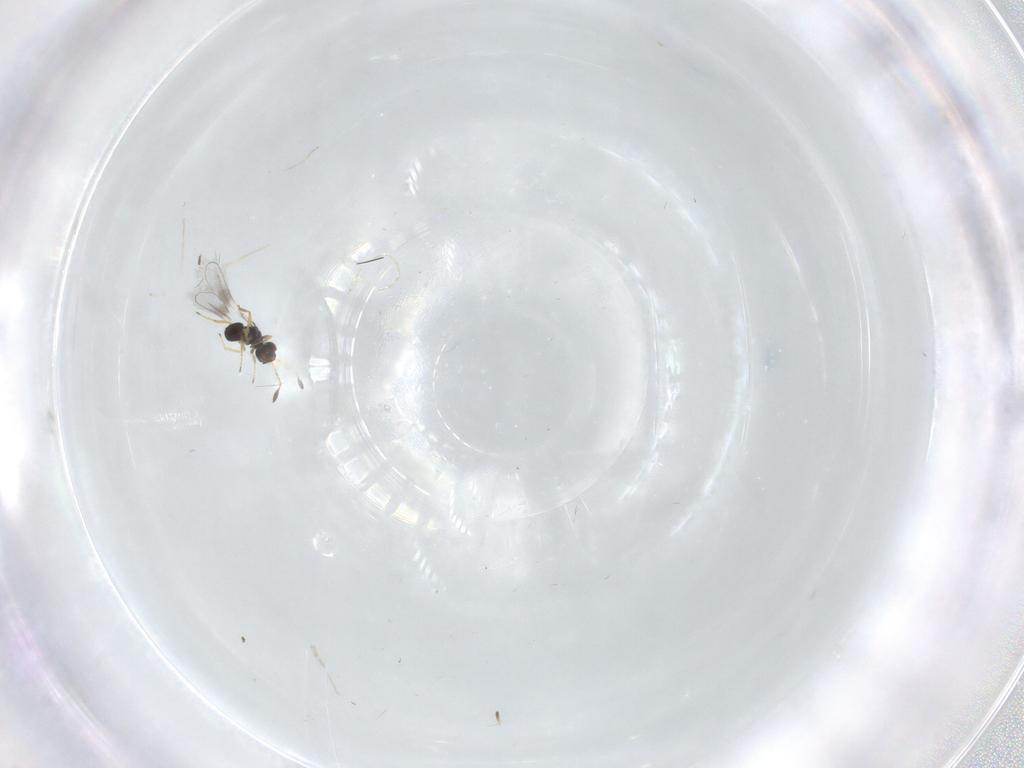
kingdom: Animalia
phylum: Arthropoda
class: Insecta
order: Hymenoptera
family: Mymaridae
